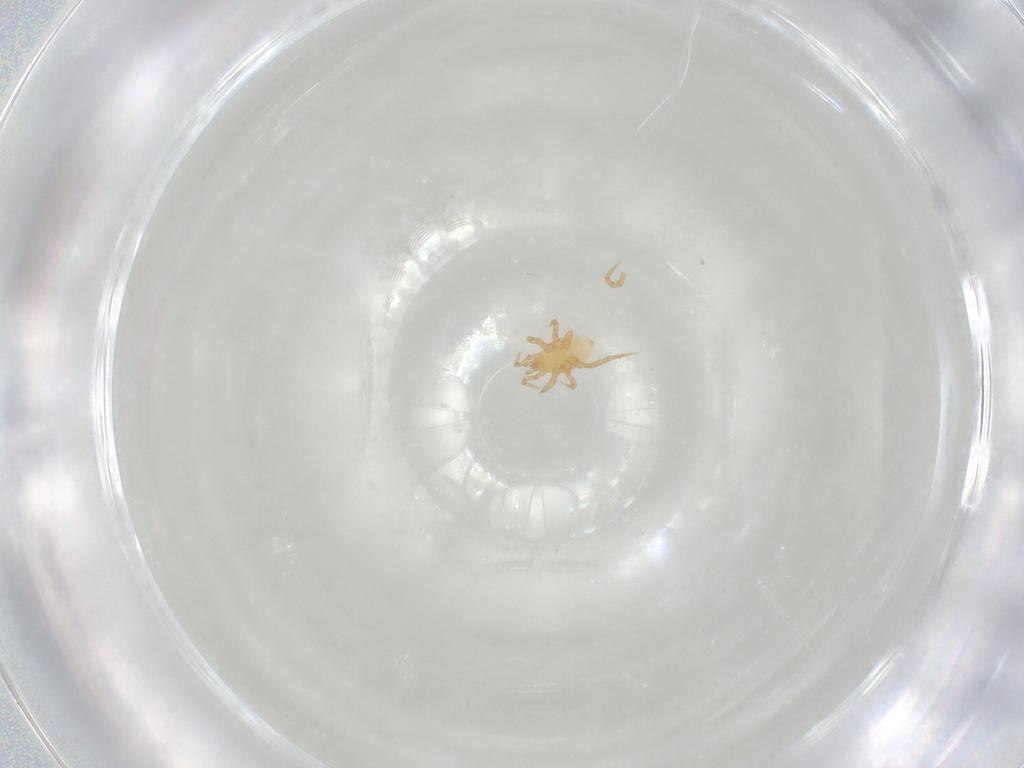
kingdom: Animalia
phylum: Arthropoda
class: Arachnida
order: Mesostigmata
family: Parasitidae
